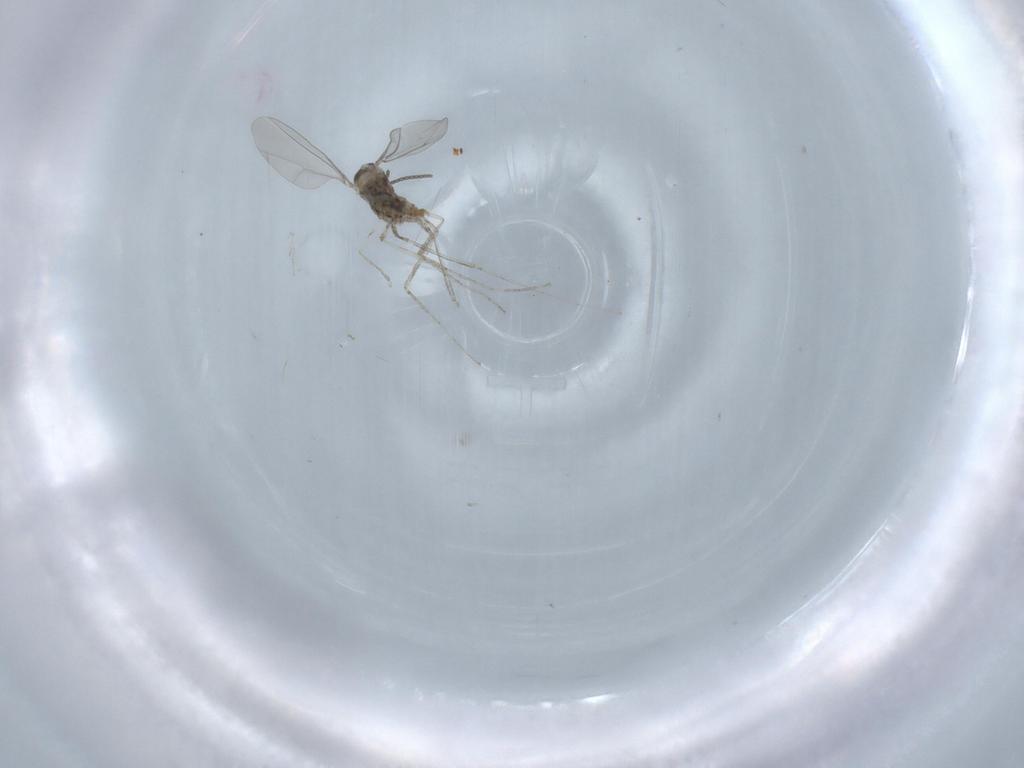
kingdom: Animalia
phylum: Arthropoda
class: Insecta
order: Diptera
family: Cecidomyiidae
